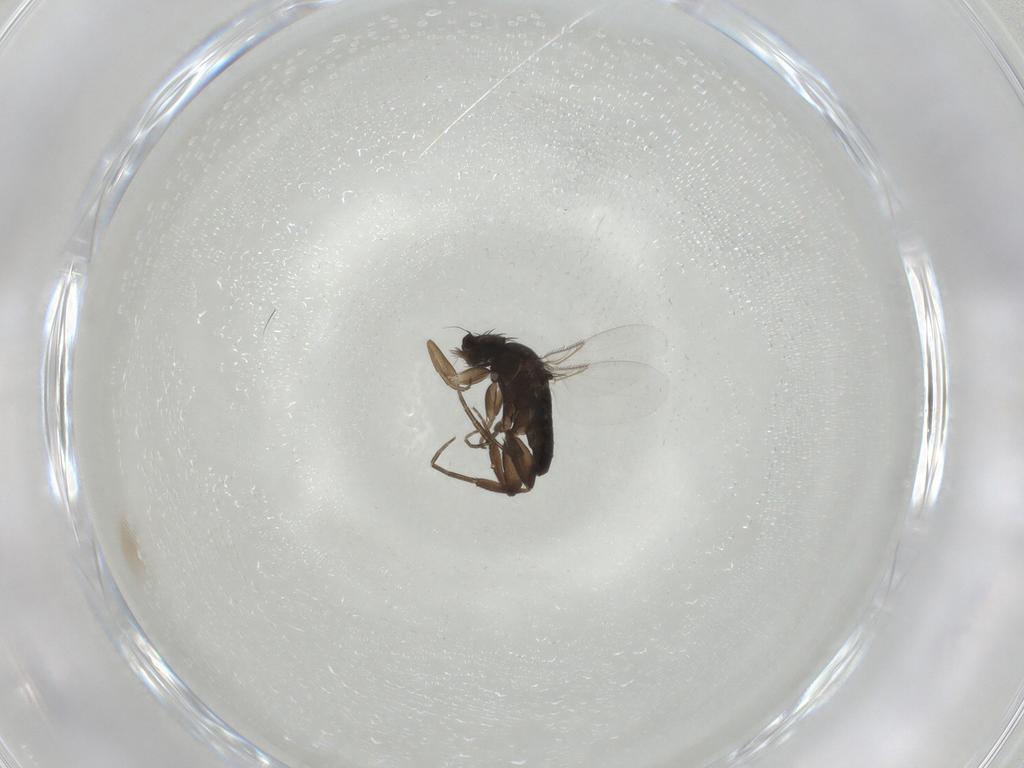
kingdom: Animalia
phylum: Arthropoda
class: Insecta
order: Diptera
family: Phoridae
